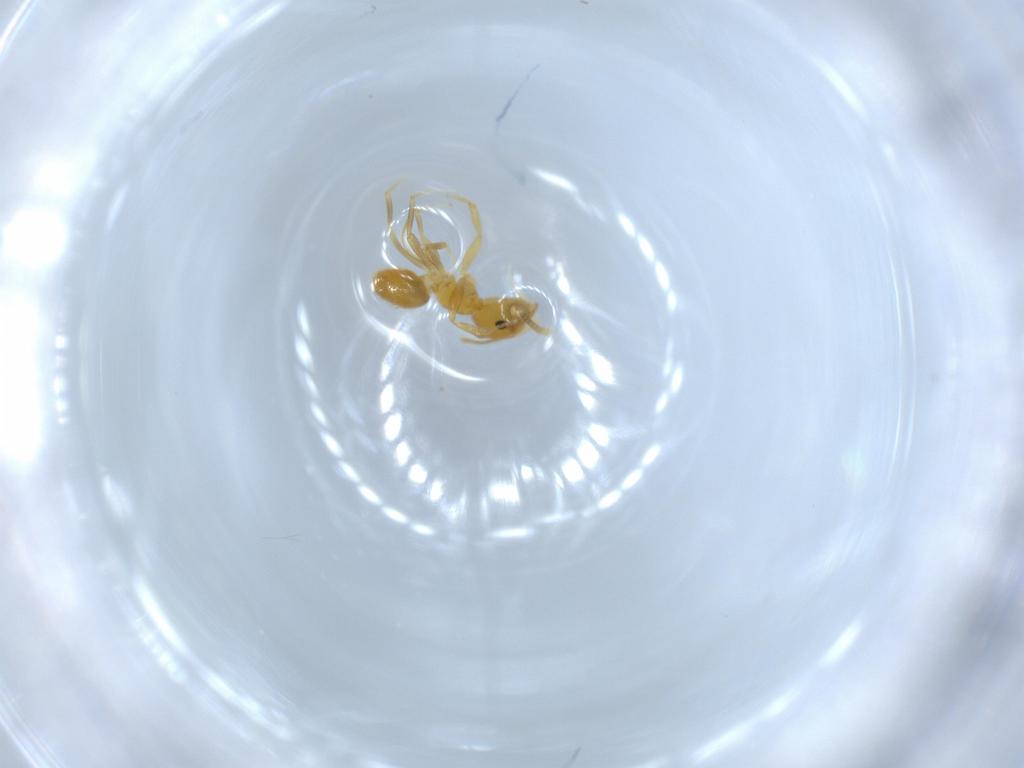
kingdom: Animalia
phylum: Arthropoda
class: Insecta
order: Hymenoptera
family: Formicidae
